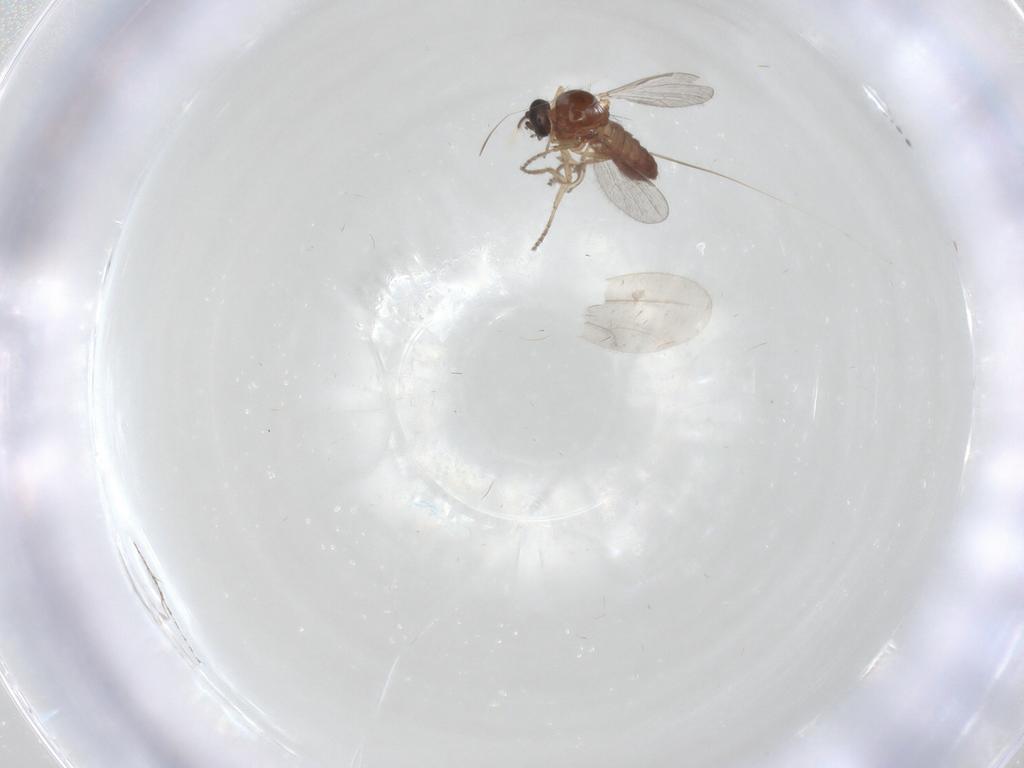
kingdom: Animalia
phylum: Arthropoda
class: Insecta
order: Diptera
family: Ceratopogonidae
